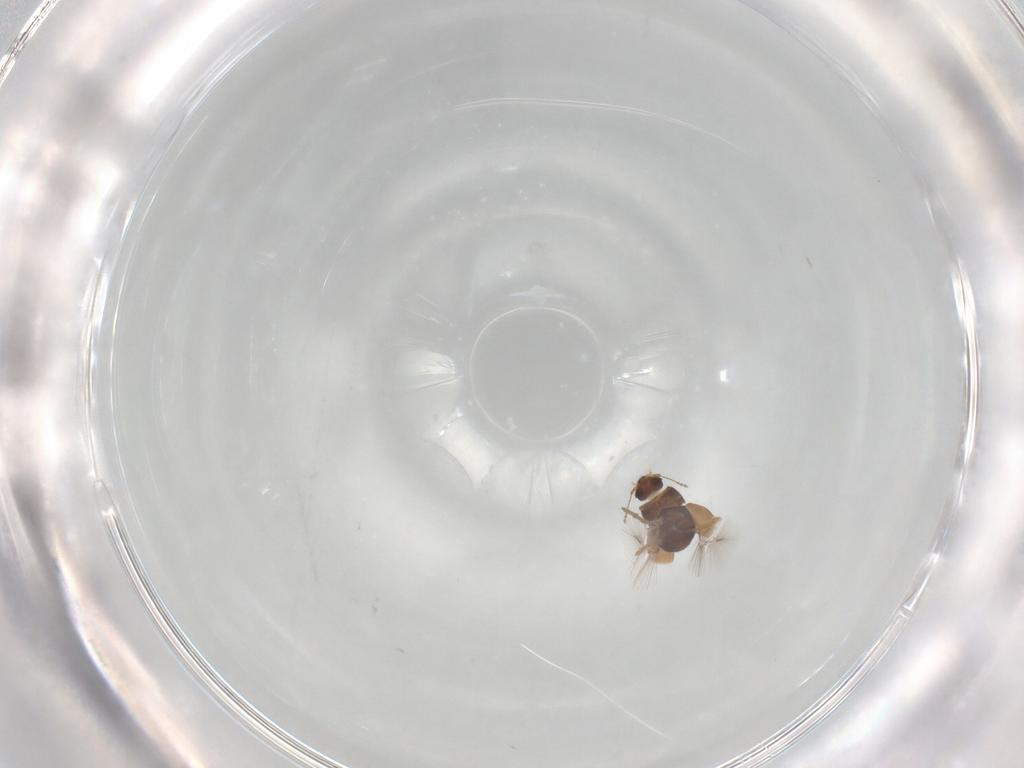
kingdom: Animalia
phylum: Arthropoda
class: Insecta
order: Coleoptera
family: Ptiliidae
